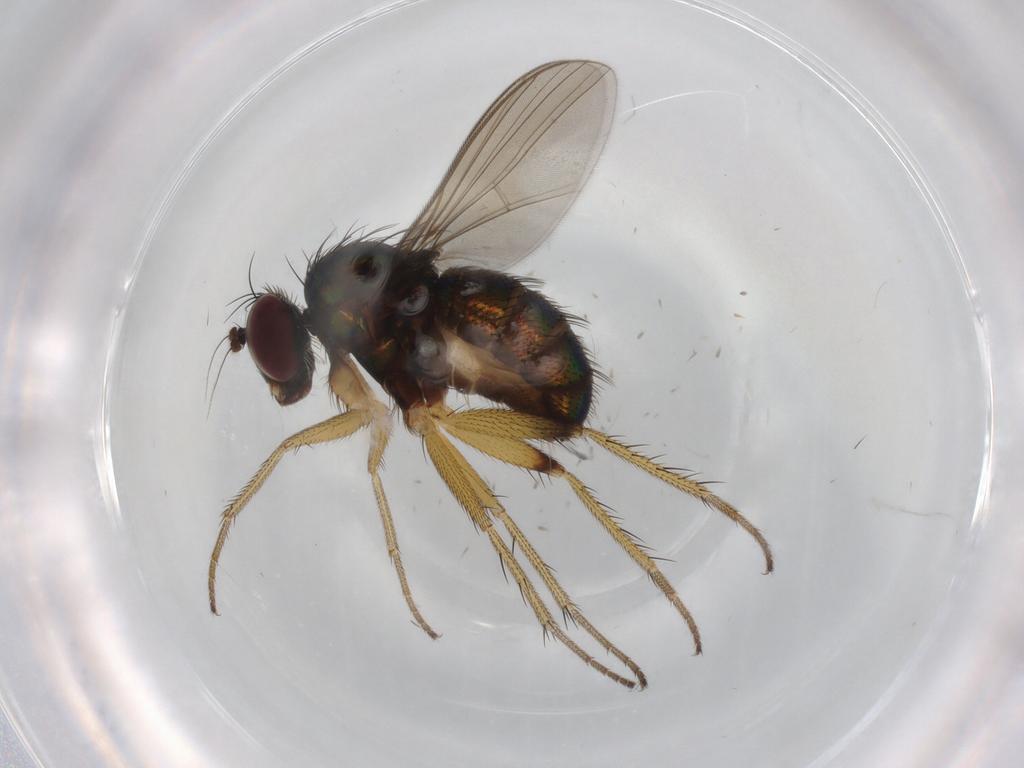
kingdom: Animalia
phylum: Arthropoda
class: Insecta
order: Diptera
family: Dolichopodidae
